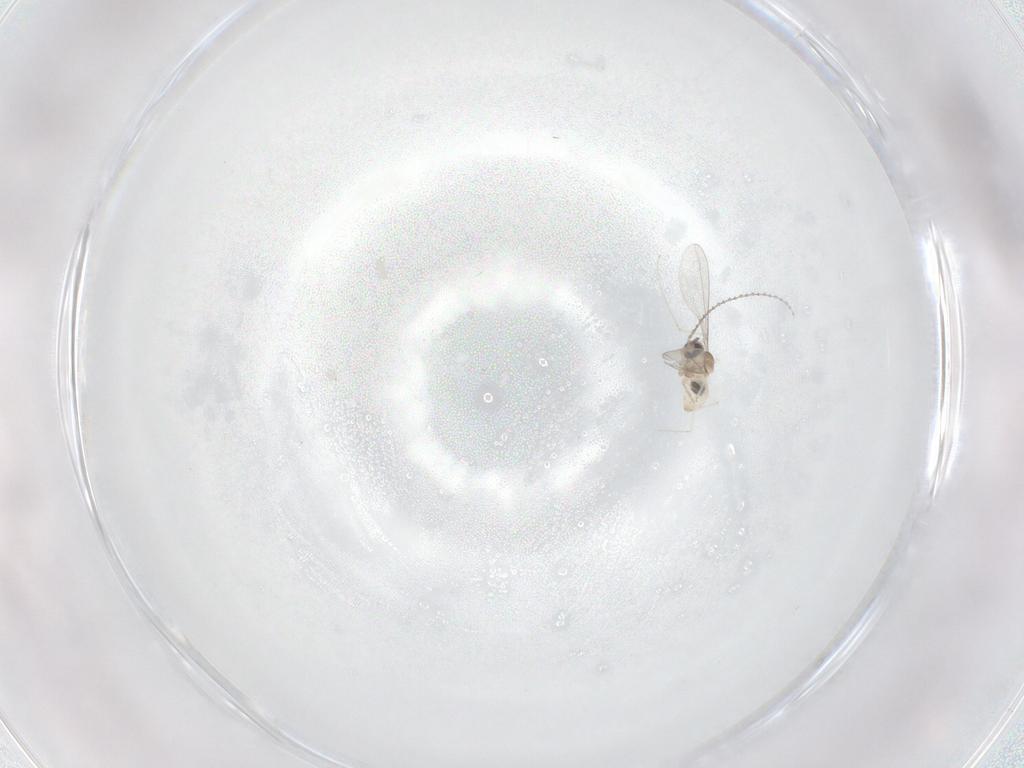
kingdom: Animalia
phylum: Arthropoda
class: Insecta
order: Diptera
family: Cecidomyiidae
